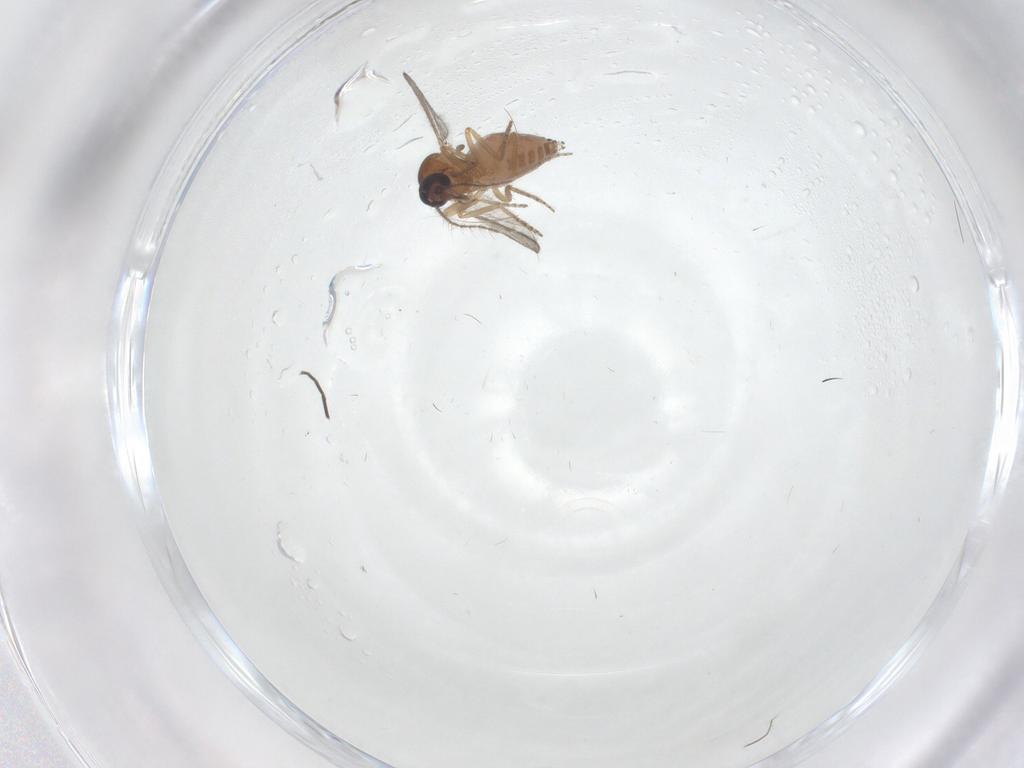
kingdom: Animalia
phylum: Arthropoda
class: Insecta
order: Diptera
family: Ceratopogonidae
